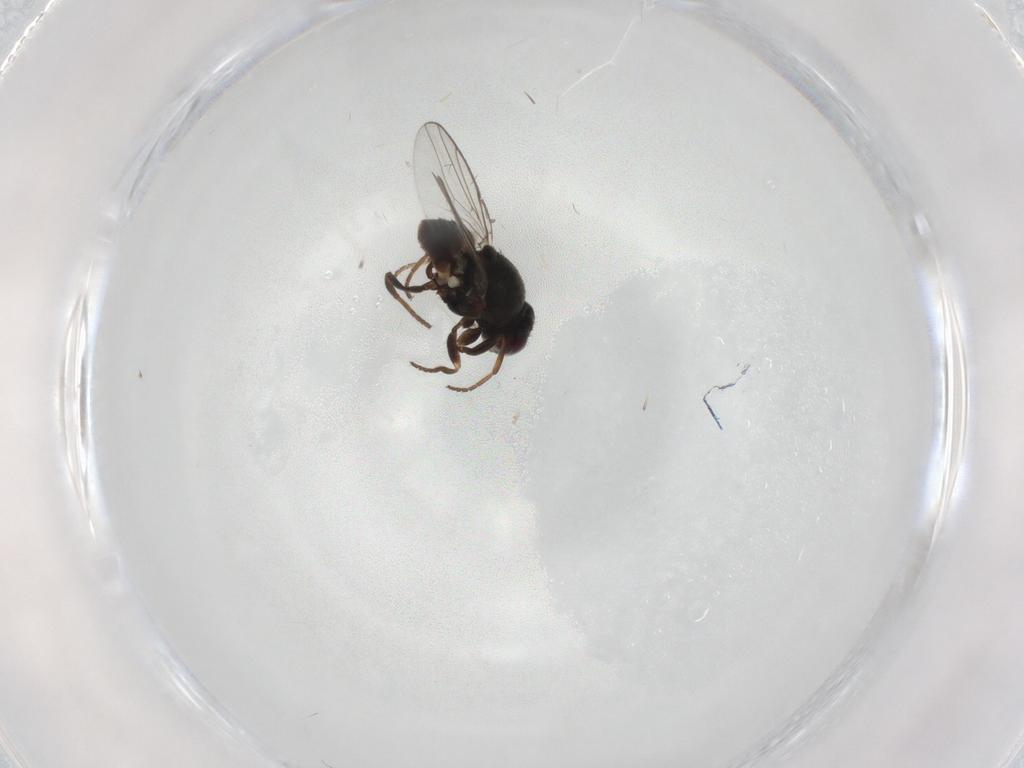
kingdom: Animalia
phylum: Arthropoda
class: Insecta
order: Diptera
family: Chloropidae
